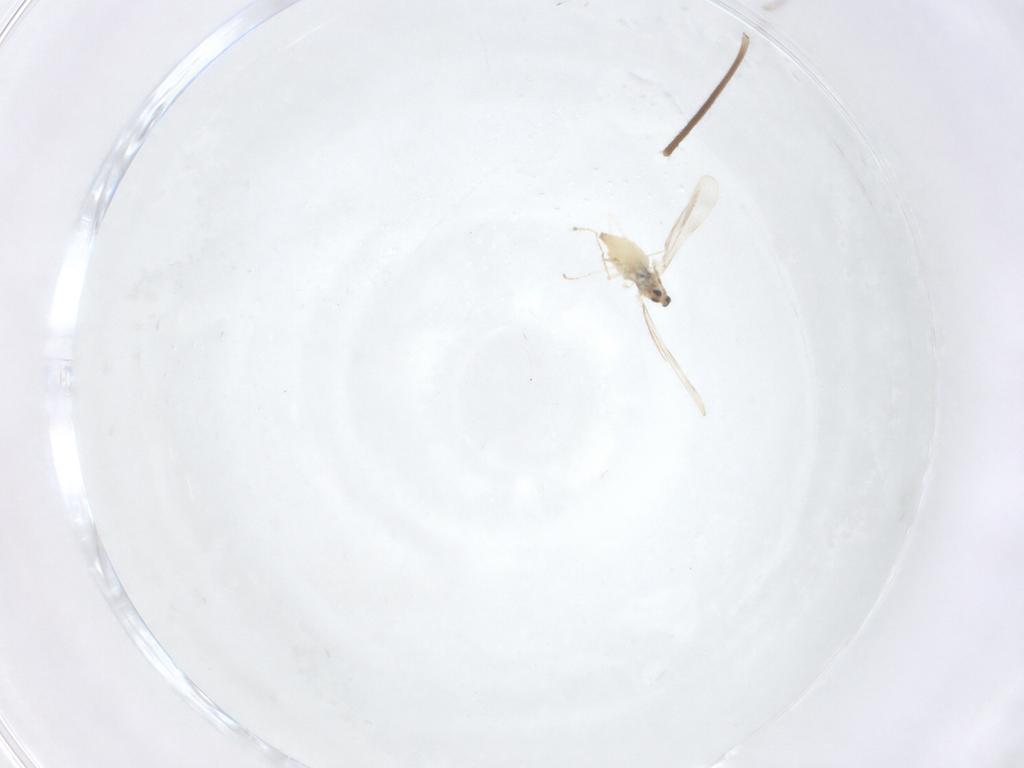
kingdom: Animalia
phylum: Arthropoda
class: Insecta
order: Diptera
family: Cecidomyiidae
